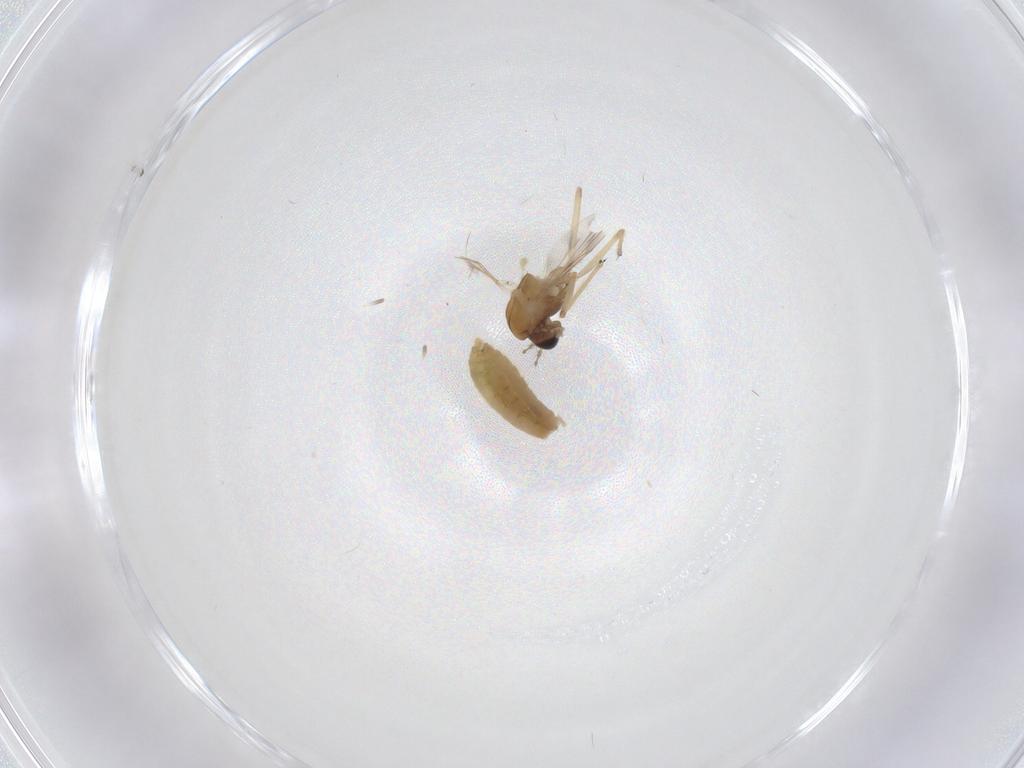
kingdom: Animalia
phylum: Arthropoda
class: Insecta
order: Diptera
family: Chironomidae
